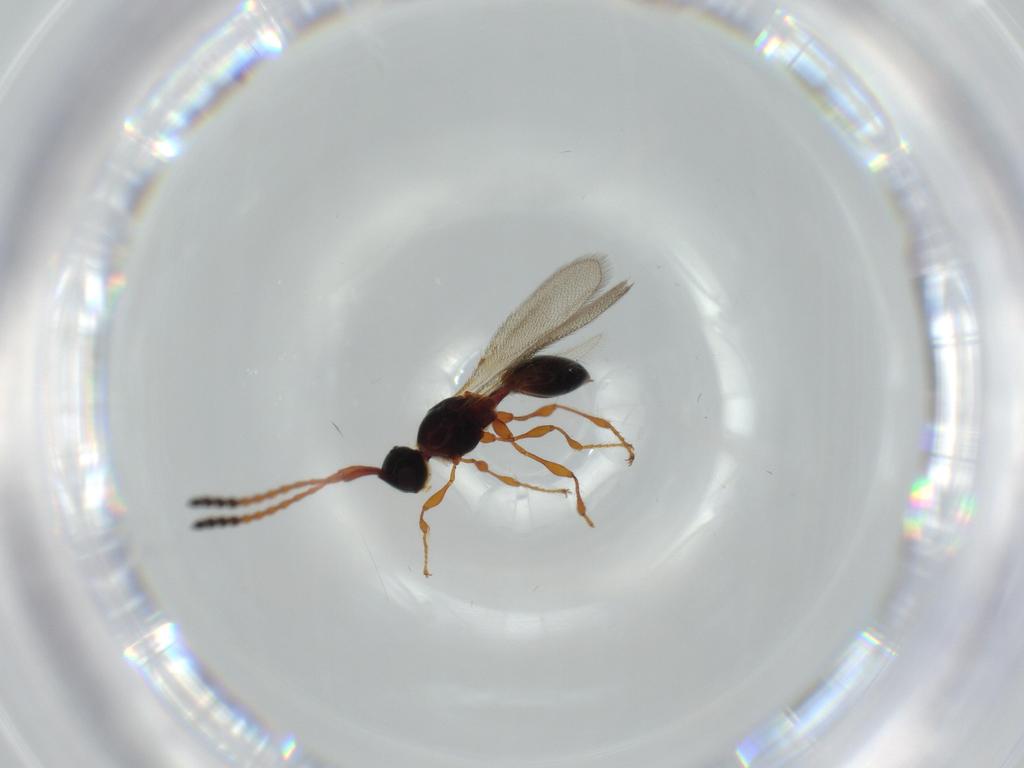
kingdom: Animalia
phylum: Arthropoda
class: Insecta
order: Hymenoptera
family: Diapriidae
